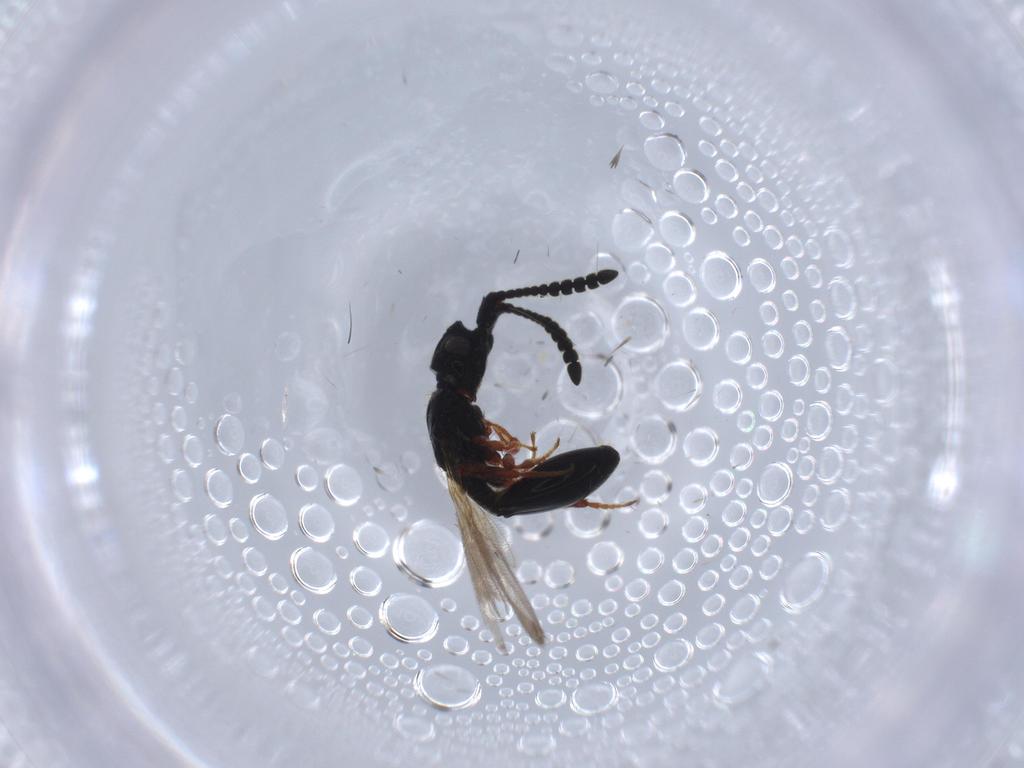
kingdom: Animalia
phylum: Arthropoda
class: Insecta
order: Hymenoptera
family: Diapriidae
